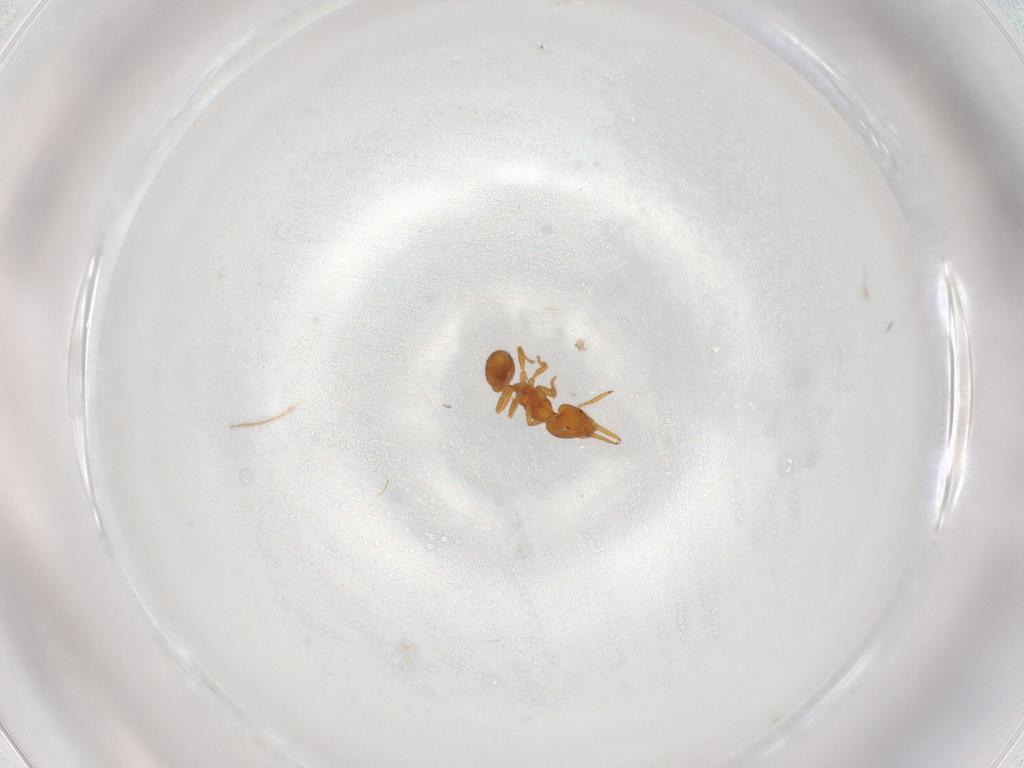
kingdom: Animalia
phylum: Arthropoda
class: Insecta
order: Hymenoptera
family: Formicidae
